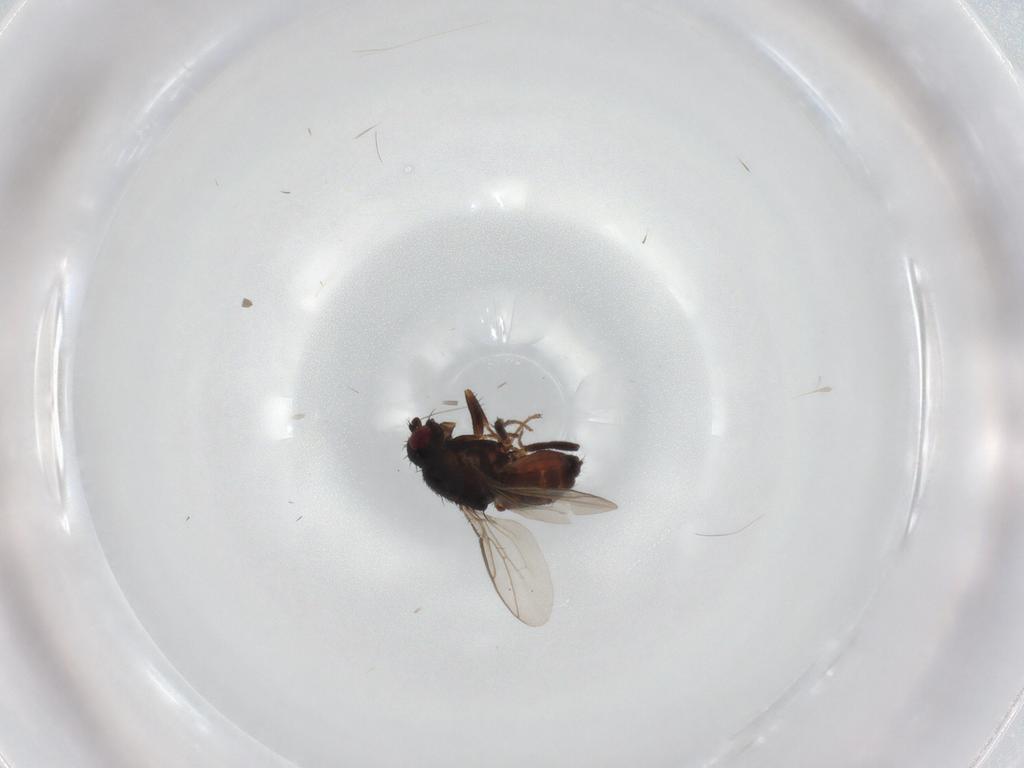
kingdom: Animalia
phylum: Arthropoda
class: Insecta
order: Diptera
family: Sphaeroceridae
